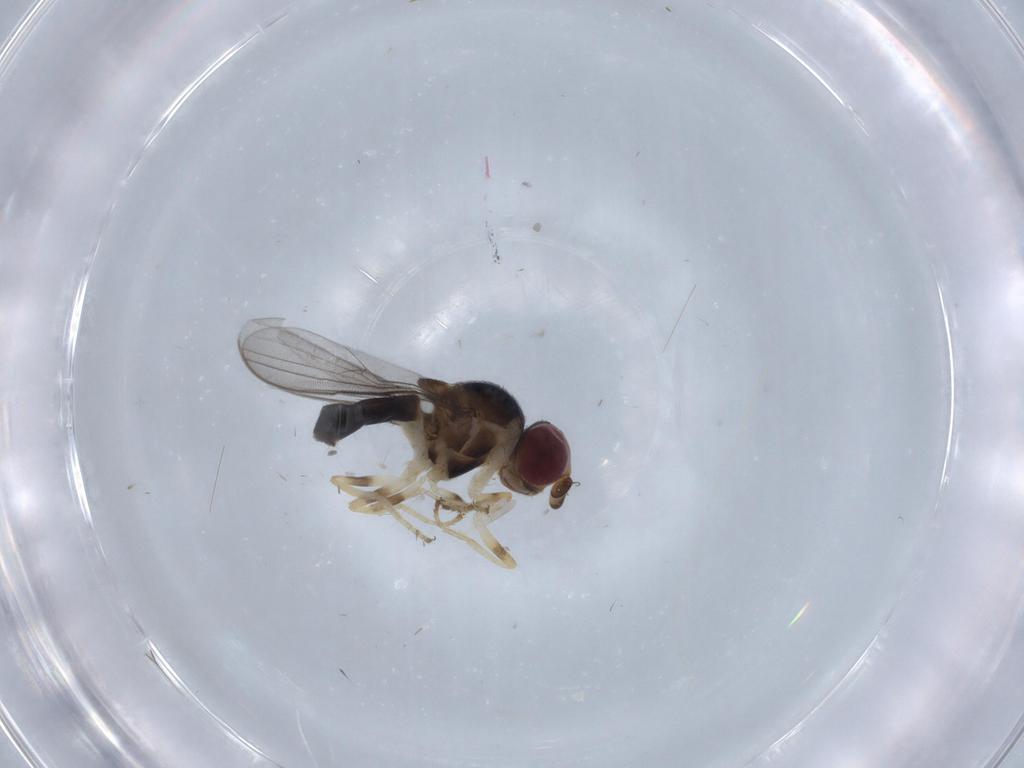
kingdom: Animalia
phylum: Arthropoda
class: Insecta
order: Diptera
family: Chloropidae
